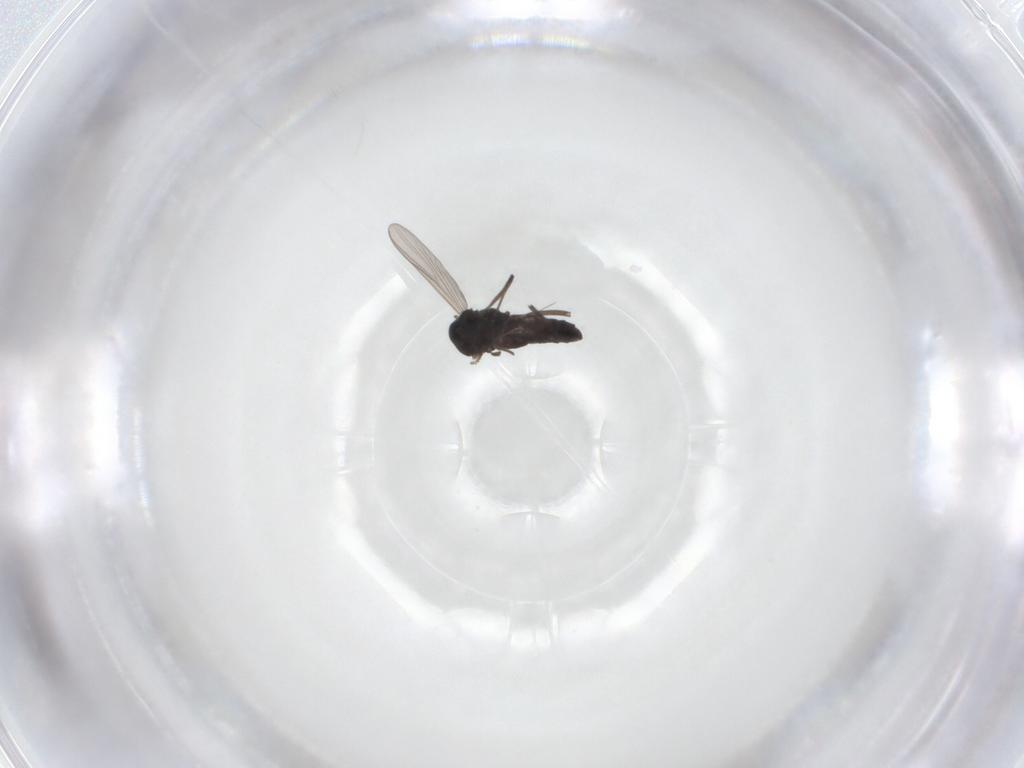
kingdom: Animalia
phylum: Arthropoda
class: Insecta
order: Diptera
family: Chironomidae
